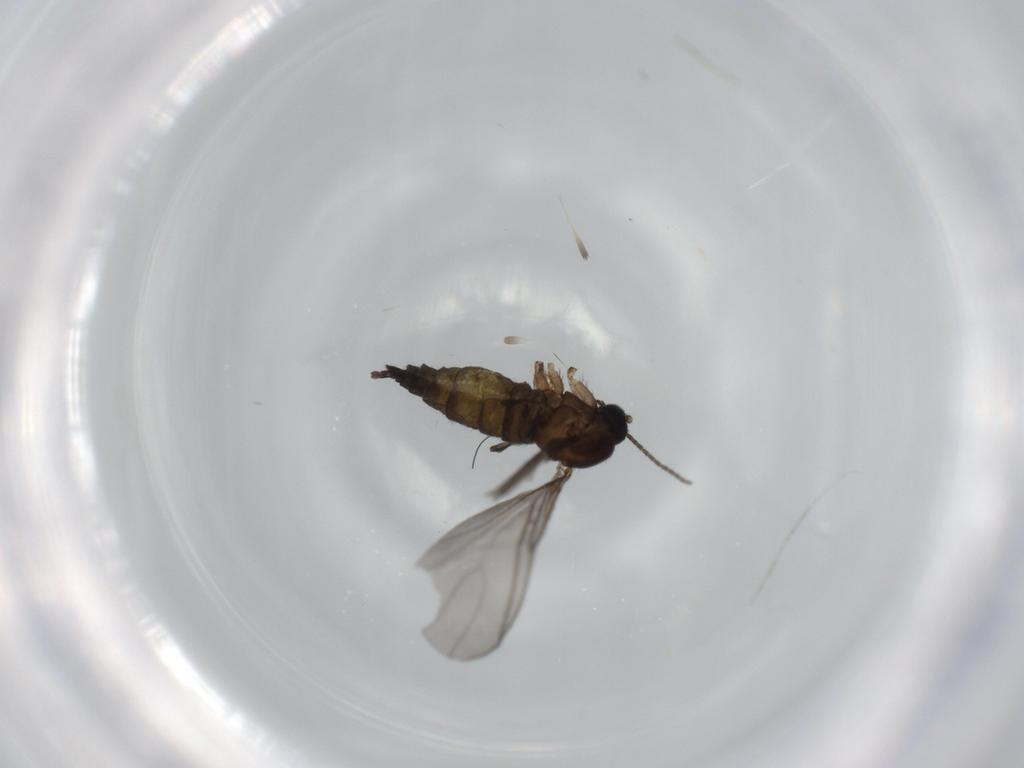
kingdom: Animalia
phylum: Arthropoda
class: Insecta
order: Diptera
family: Sciaridae
